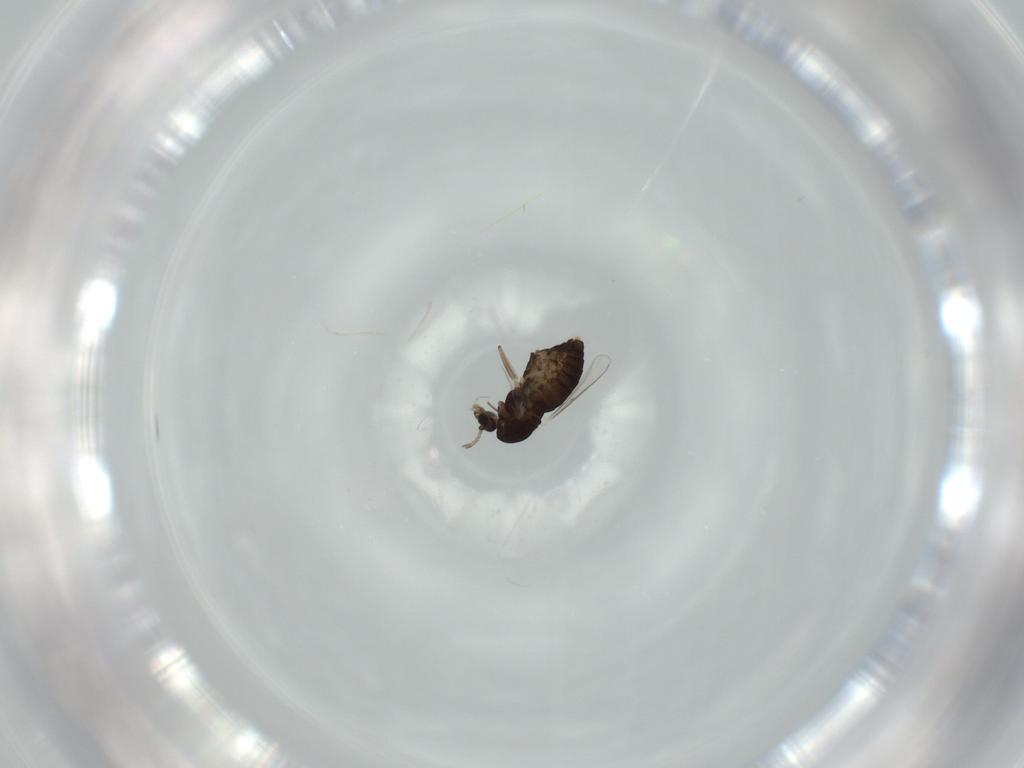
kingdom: Animalia
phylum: Arthropoda
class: Insecta
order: Diptera
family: Chironomidae
